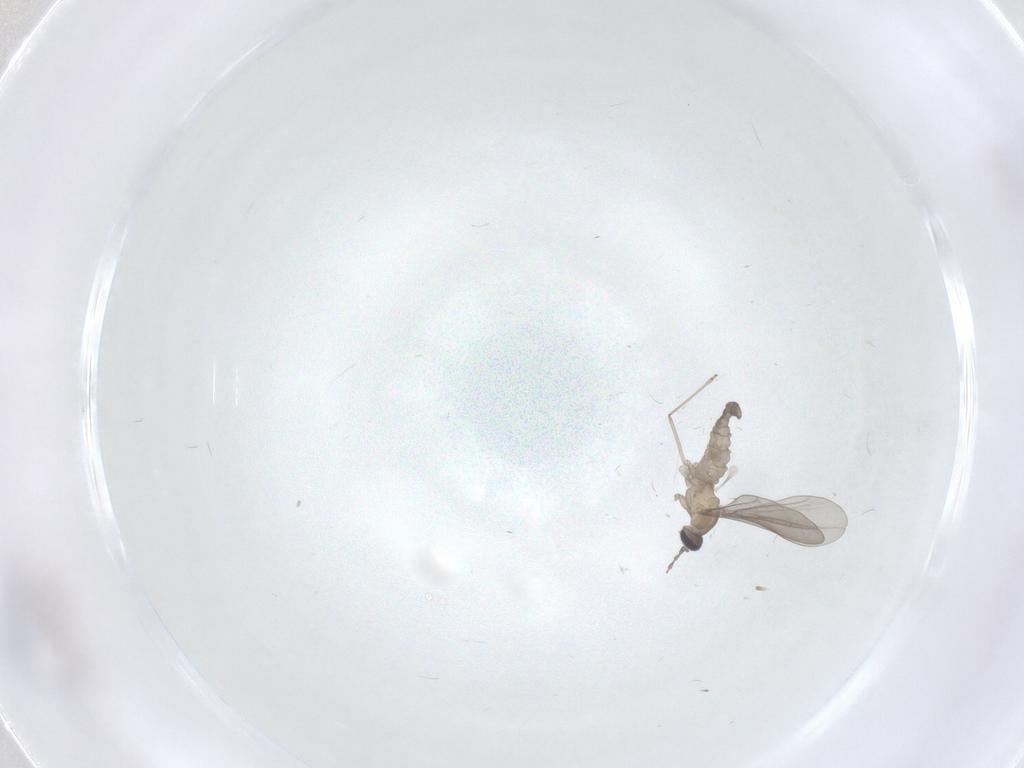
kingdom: Animalia
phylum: Arthropoda
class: Insecta
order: Diptera
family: Cecidomyiidae
